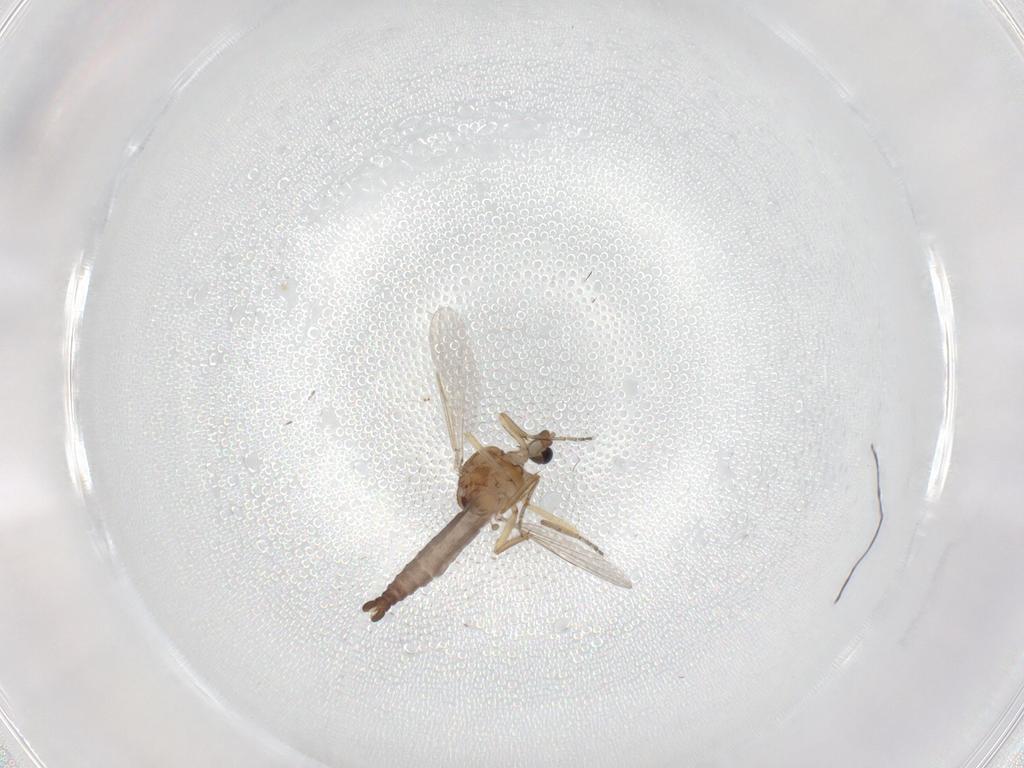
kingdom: Animalia
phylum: Arthropoda
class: Insecta
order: Diptera
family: Ceratopogonidae
